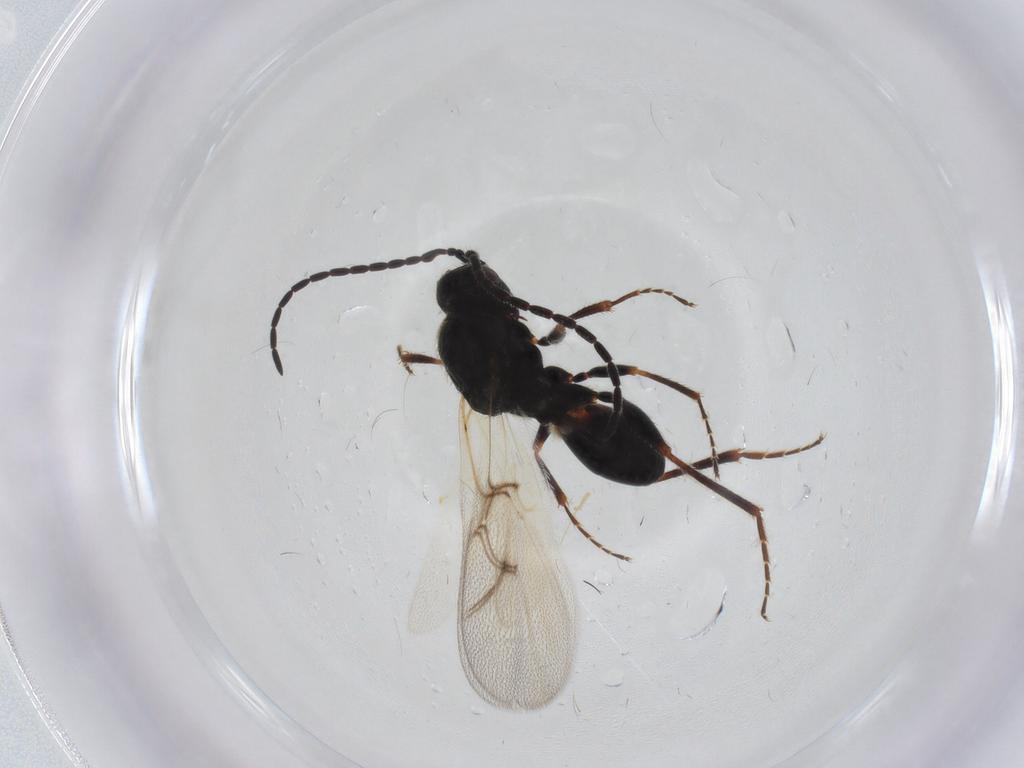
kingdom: Animalia
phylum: Arthropoda
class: Insecta
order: Hymenoptera
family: Figitidae
